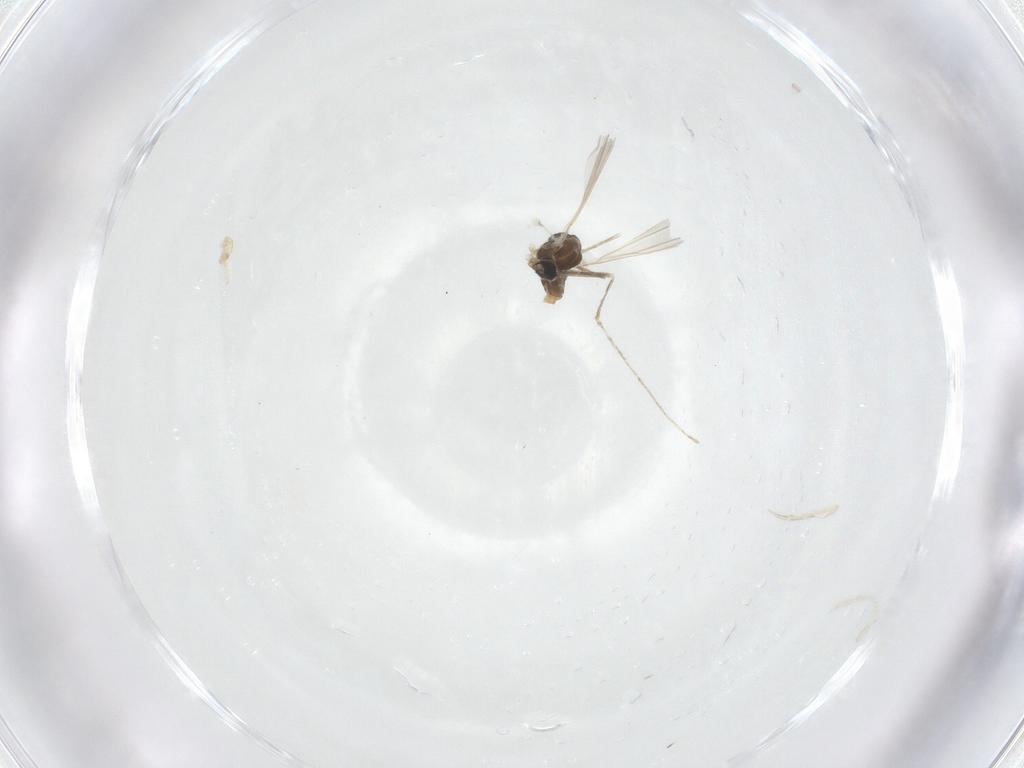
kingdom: Animalia
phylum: Arthropoda
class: Insecta
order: Diptera
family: Cecidomyiidae
